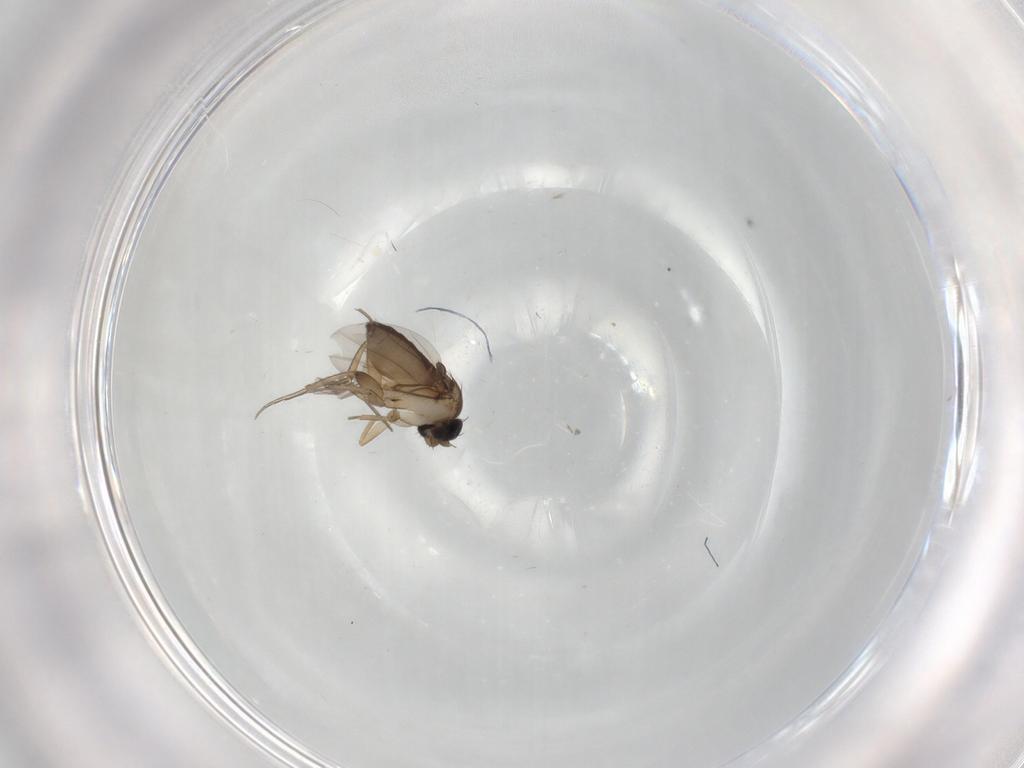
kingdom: Animalia
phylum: Arthropoda
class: Insecta
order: Diptera
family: Phoridae
